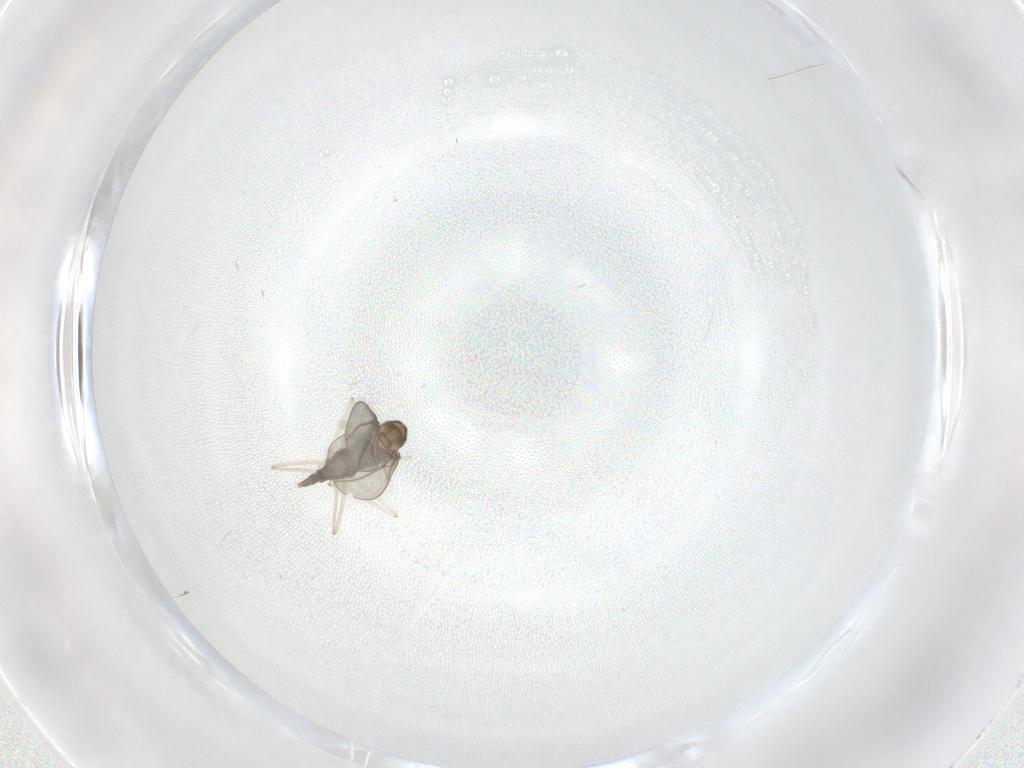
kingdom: Animalia
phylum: Arthropoda
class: Insecta
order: Diptera
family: Cecidomyiidae
